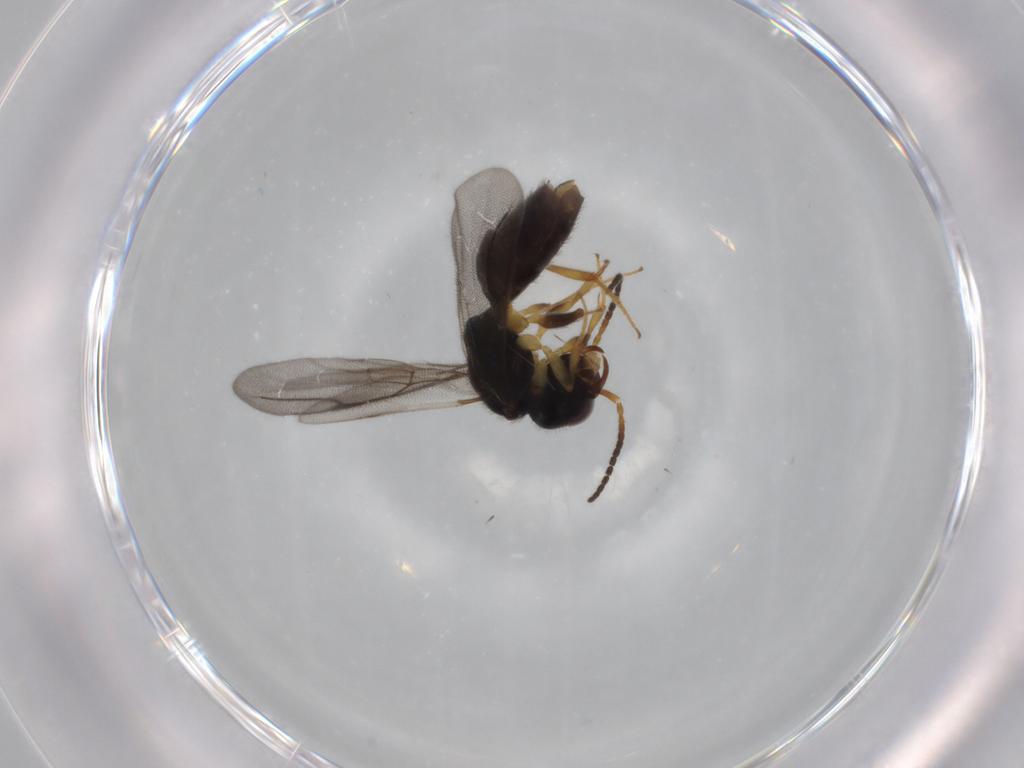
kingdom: Animalia
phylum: Arthropoda
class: Insecta
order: Hymenoptera
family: Bethylidae
